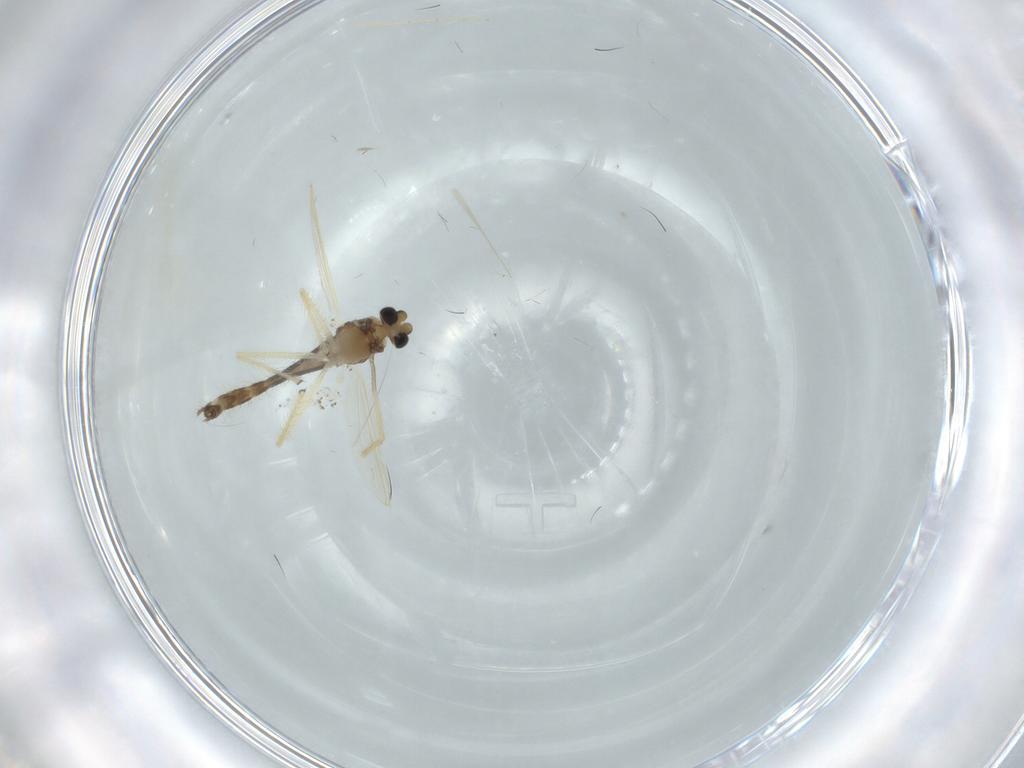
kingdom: Animalia
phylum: Arthropoda
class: Insecta
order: Diptera
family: Chironomidae
